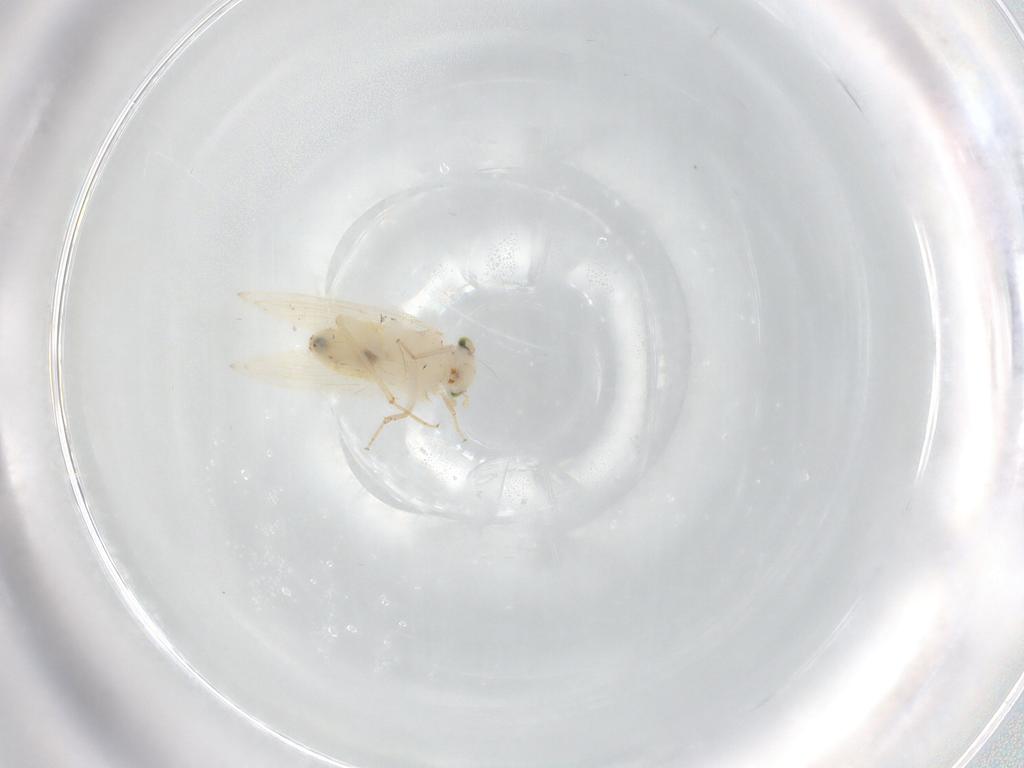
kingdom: Animalia
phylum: Arthropoda
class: Insecta
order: Psocodea
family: Lepidopsocidae
